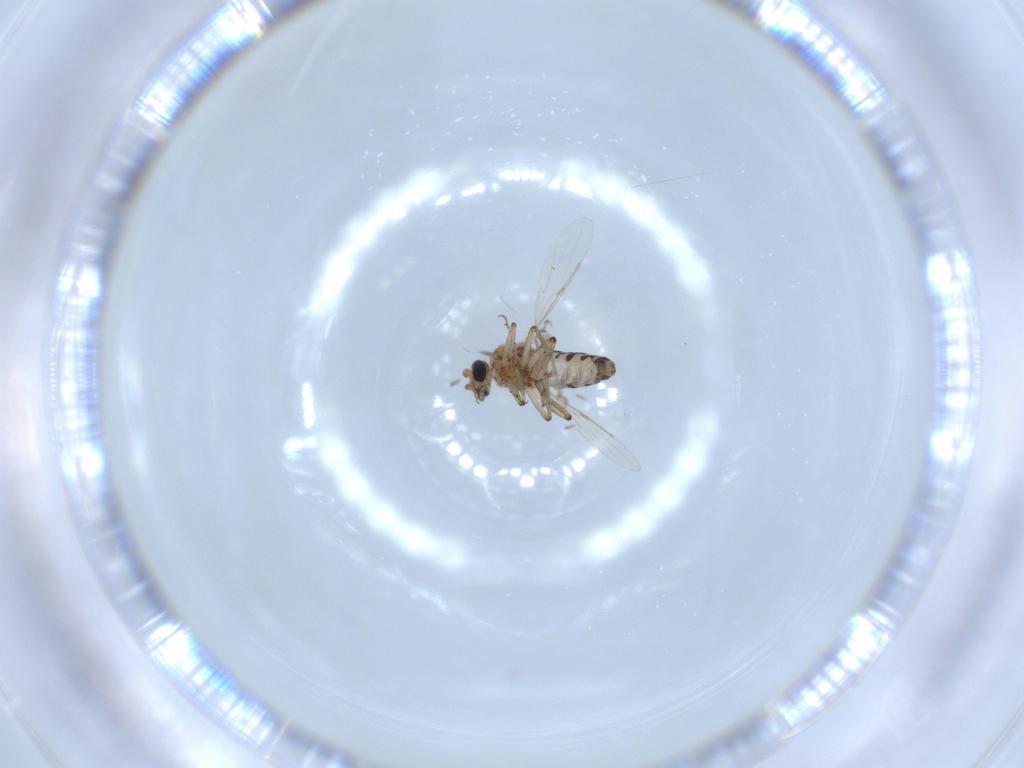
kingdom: Animalia
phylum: Arthropoda
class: Insecta
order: Diptera
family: Ceratopogonidae
